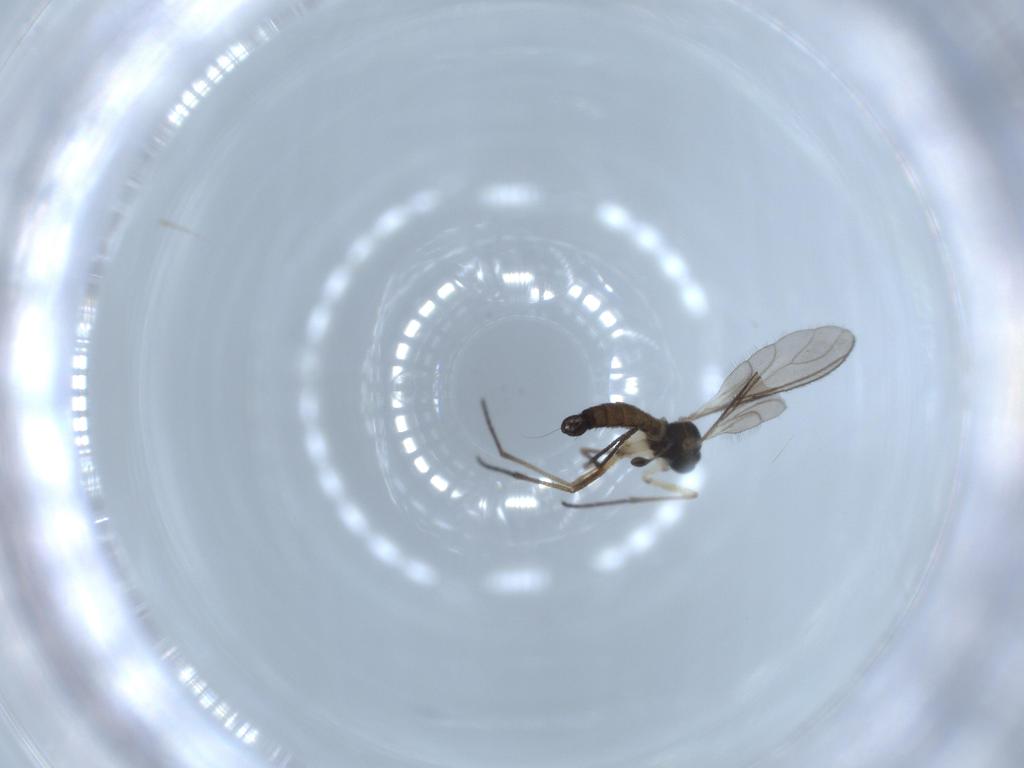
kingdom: Animalia
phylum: Arthropoda
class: Insecta
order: Diptera
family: Sciaridae
